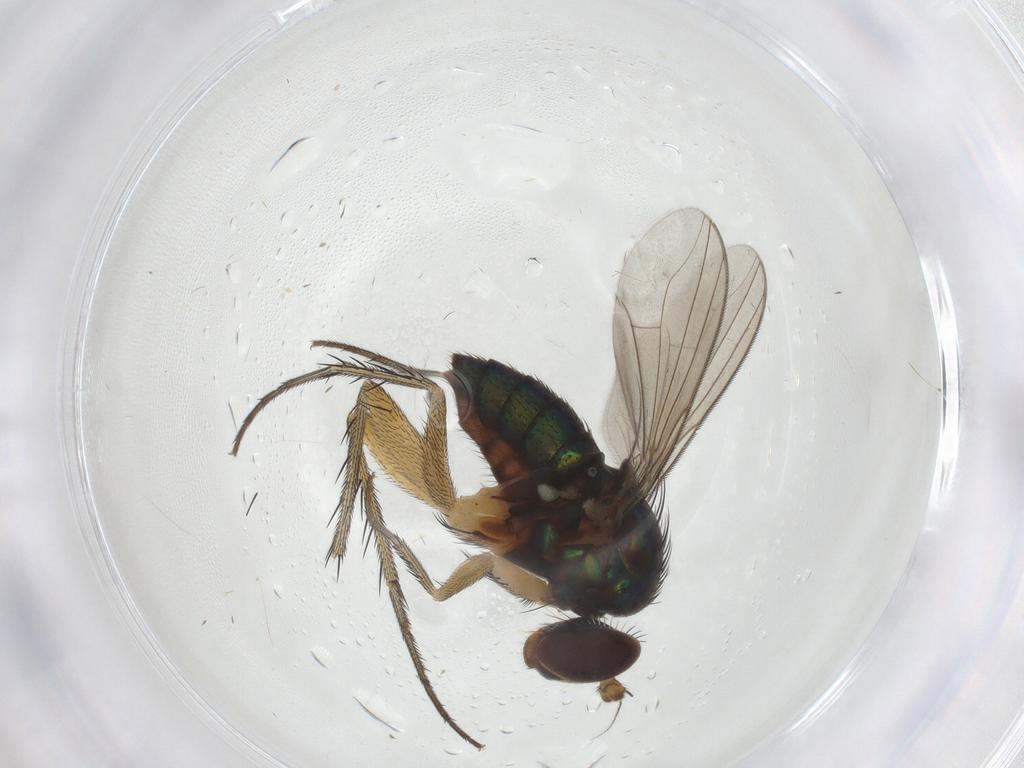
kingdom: Animalia
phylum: Arthropoda
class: Insecta
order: Diptera
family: Dolichopodidae
